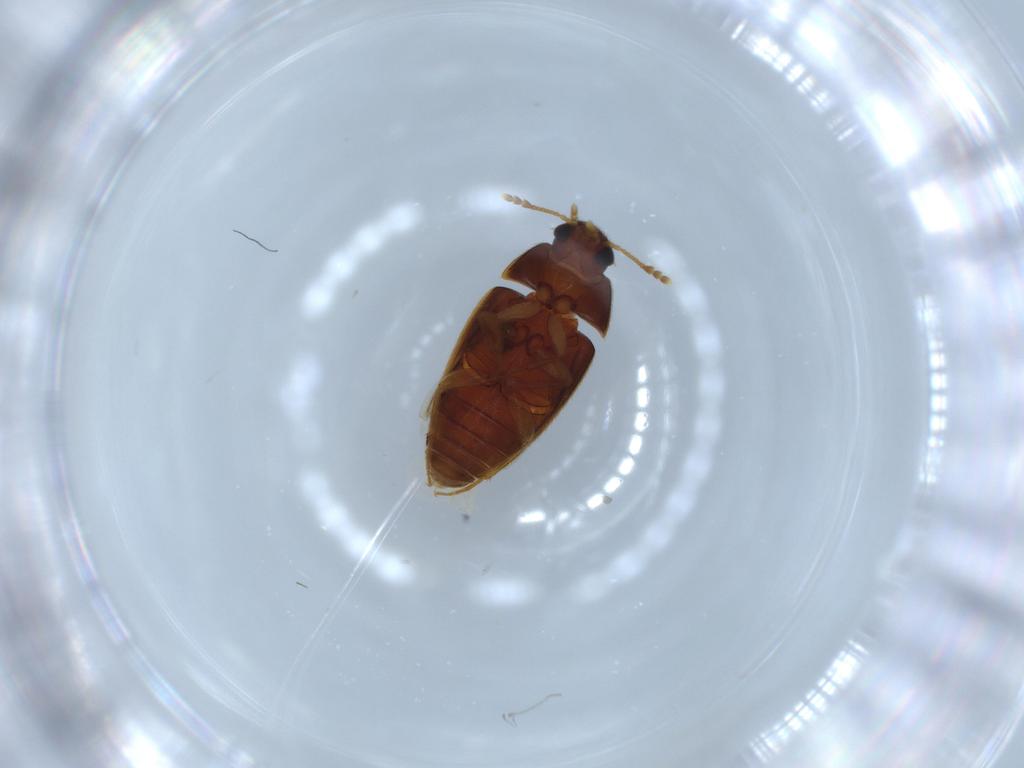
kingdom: Animalia
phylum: Arthropoda
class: Insecta
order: Coleoptera
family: Mycetophagidae
